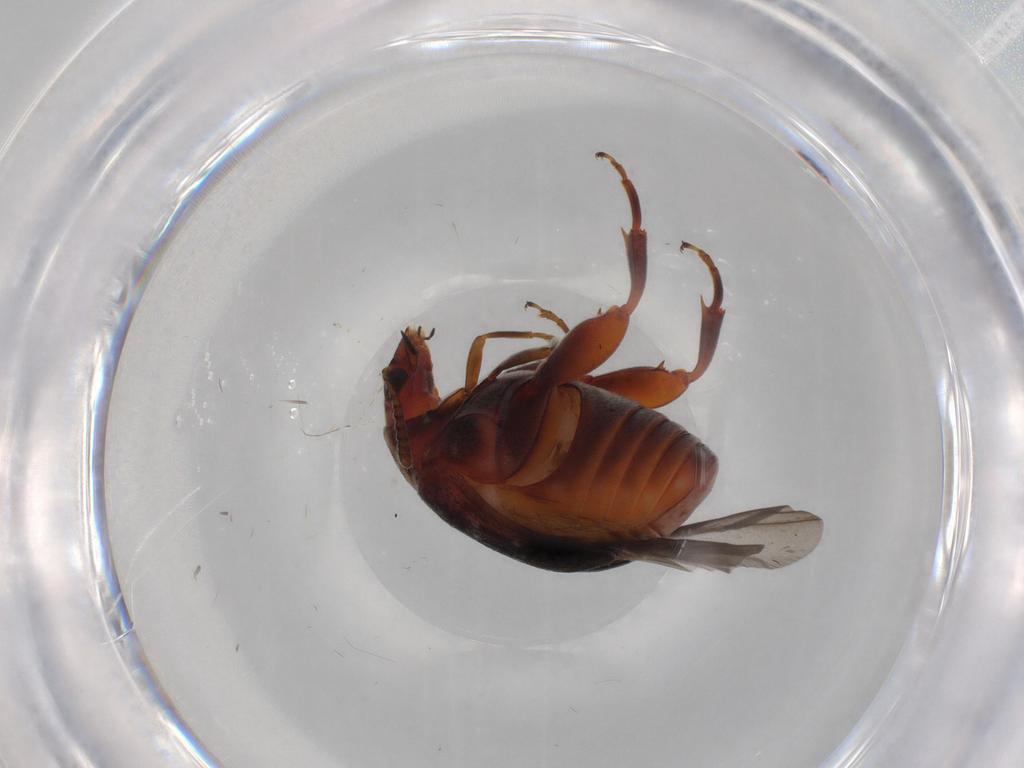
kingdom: Animalia
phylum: Arthropoda
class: Insecta
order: Coleoptera
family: Chrysomelidae
